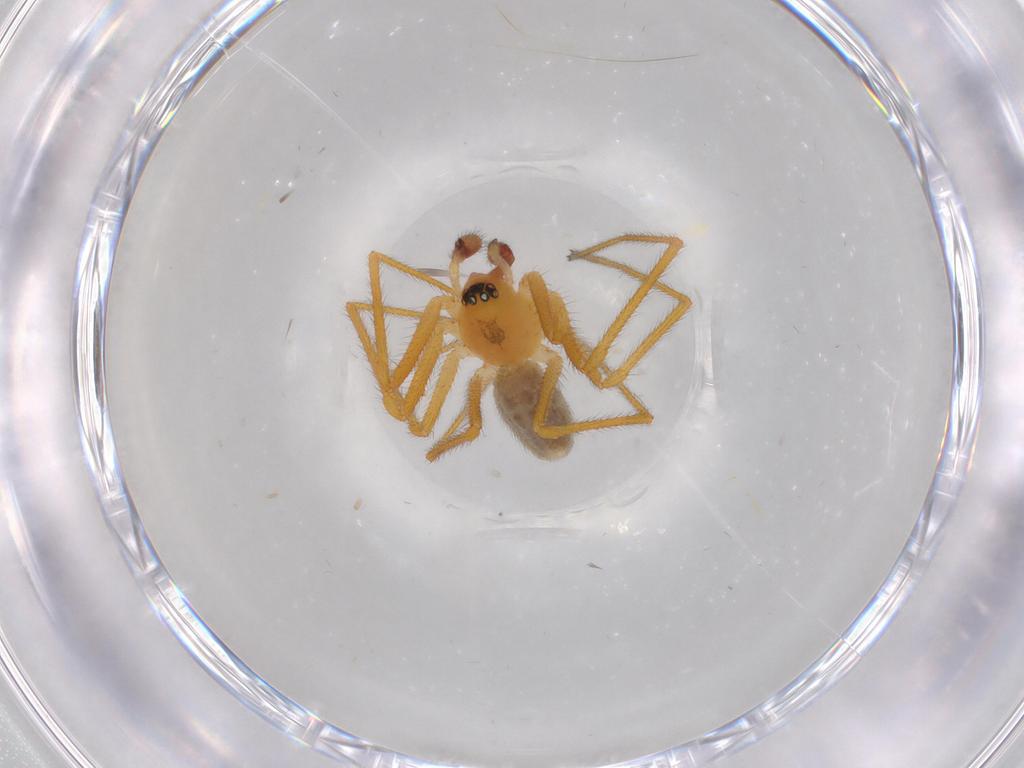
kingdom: Animalia
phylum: Arthropoda
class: Arachnida
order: Araneae
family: Linyphiidae
